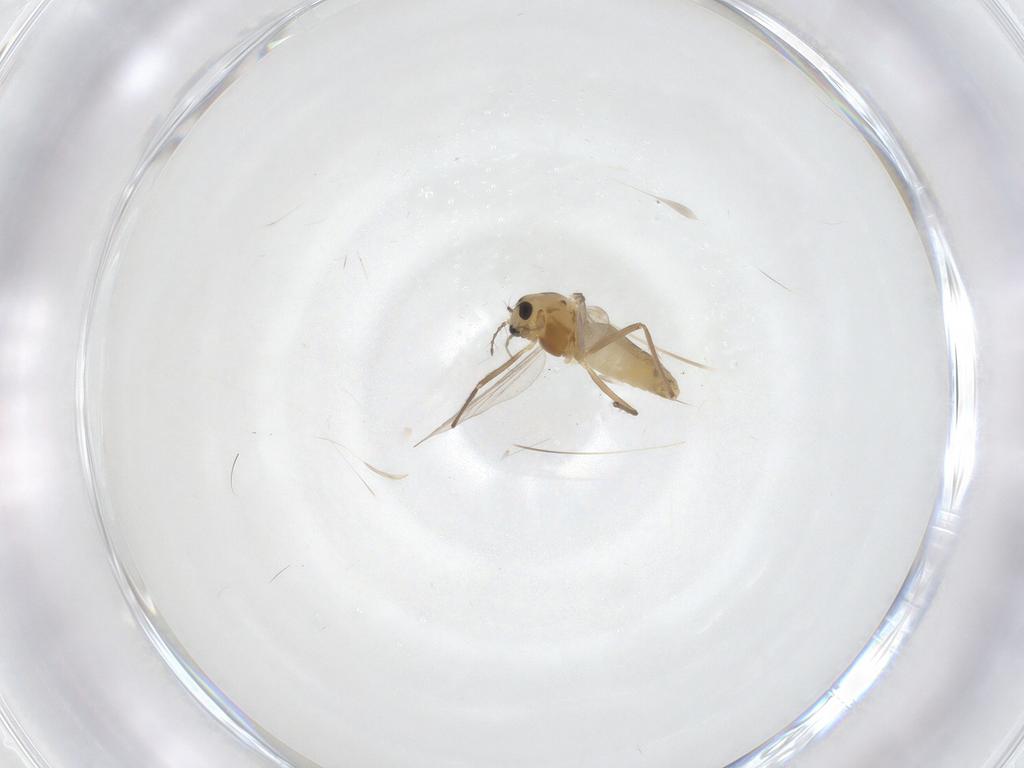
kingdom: Animalia
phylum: Arthropoda
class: Insecta
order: Diptera
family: Chironomidae
